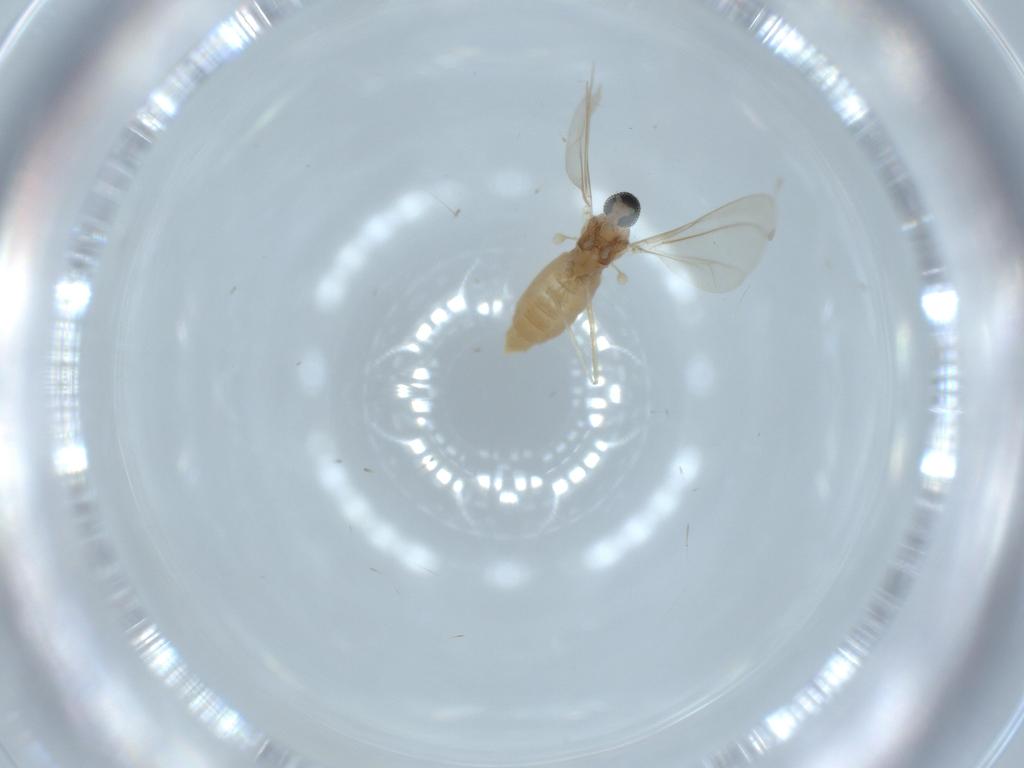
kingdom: Animalia
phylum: Arthropoda
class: Insecta
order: Diptera
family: Cecidomyiidae
